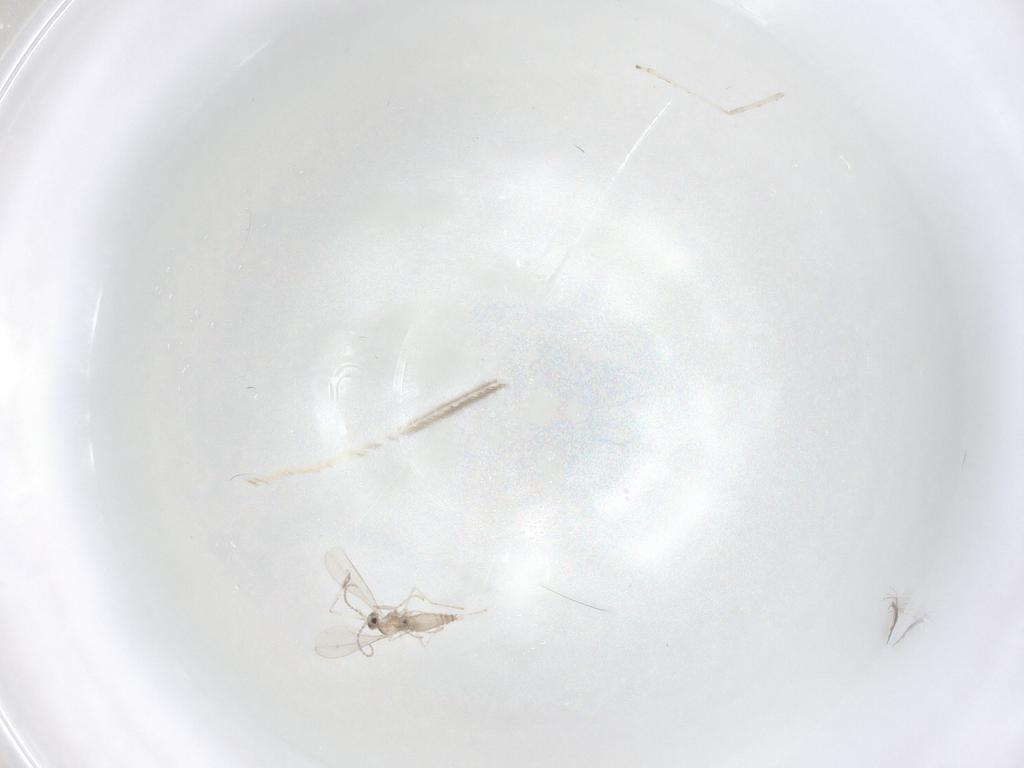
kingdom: Animalia
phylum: Arthropoda
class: Insecta
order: Diptera
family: Cecidomyiidae
